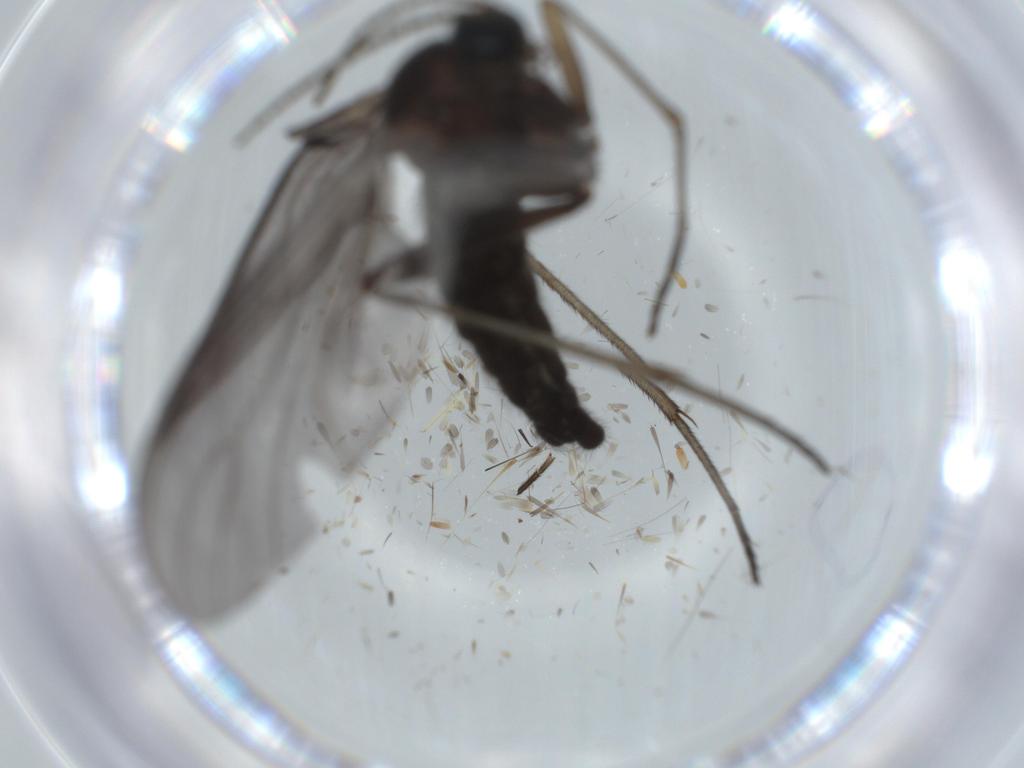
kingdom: Animalia
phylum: Arthropoda
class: Insecta
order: Diptera
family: Sciaridae
